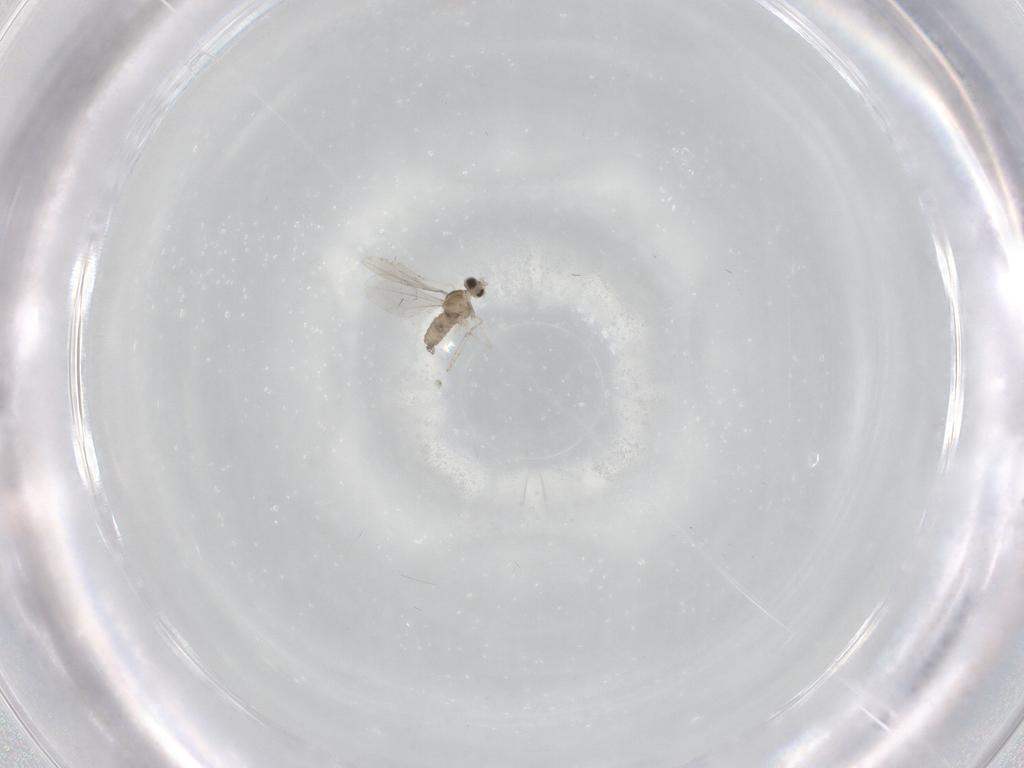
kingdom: Animalia
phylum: Arthropoda
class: Insecta
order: Diptera
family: Cecidomyiidae
